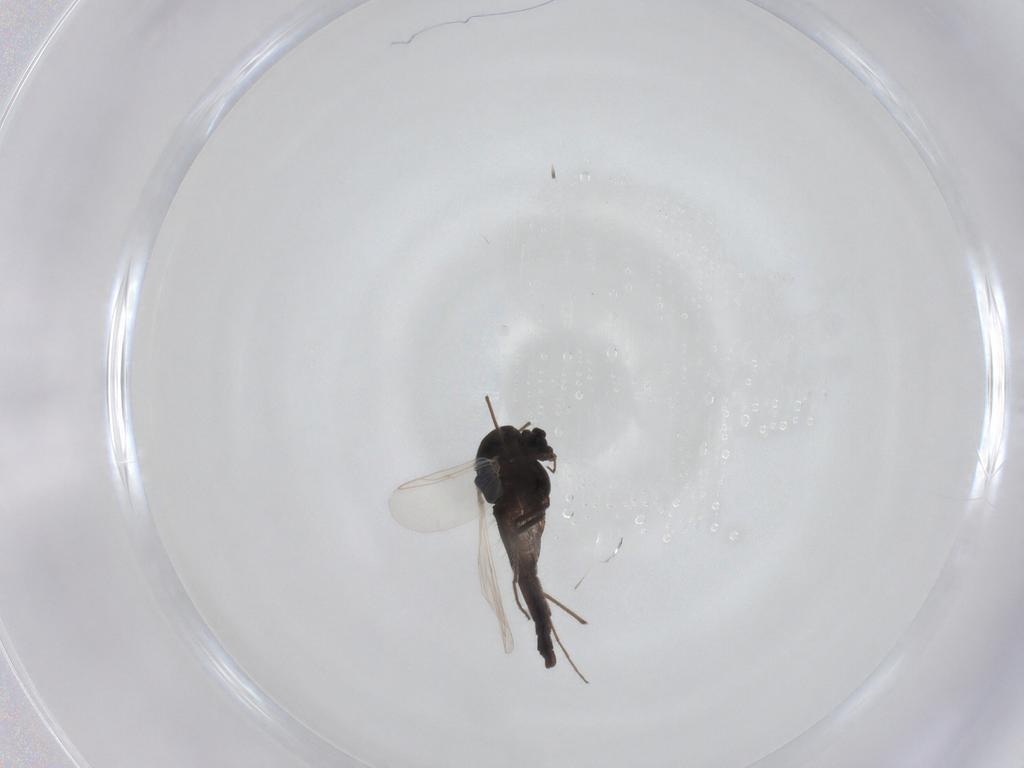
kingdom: Animalia
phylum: Arthropoda
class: Insecta
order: Diptera
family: Chironomidae
